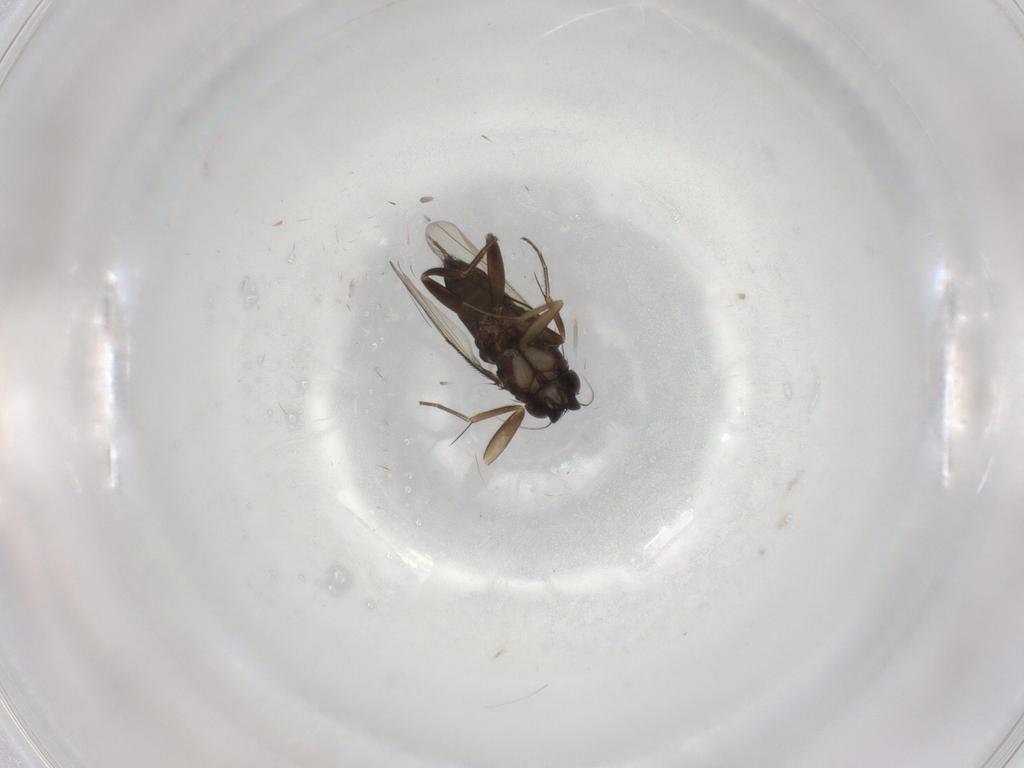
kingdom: Animalia
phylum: Arthropoda
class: Insecta
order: Diptera
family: Phoridae
